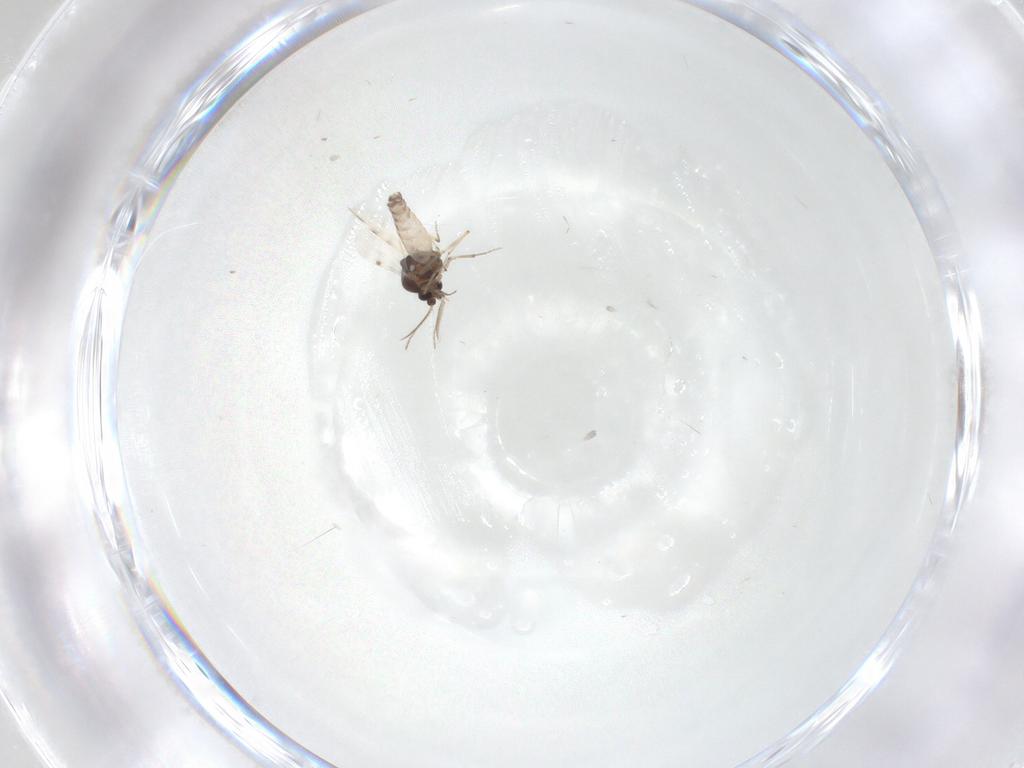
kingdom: Animalia
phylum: Arthropoda
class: Insecta
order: Diptera
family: Ceratopogonidae
